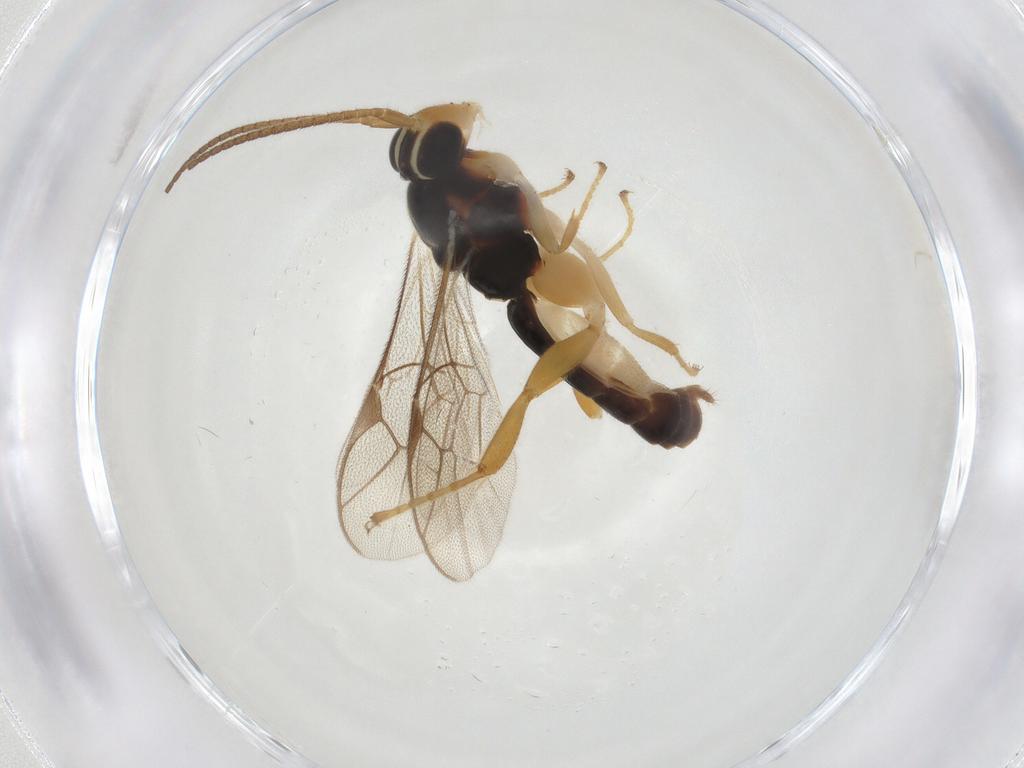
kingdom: Animalia
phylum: Arthropoda
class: Insecta
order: Hymenoptera
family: Ichneumonidae
